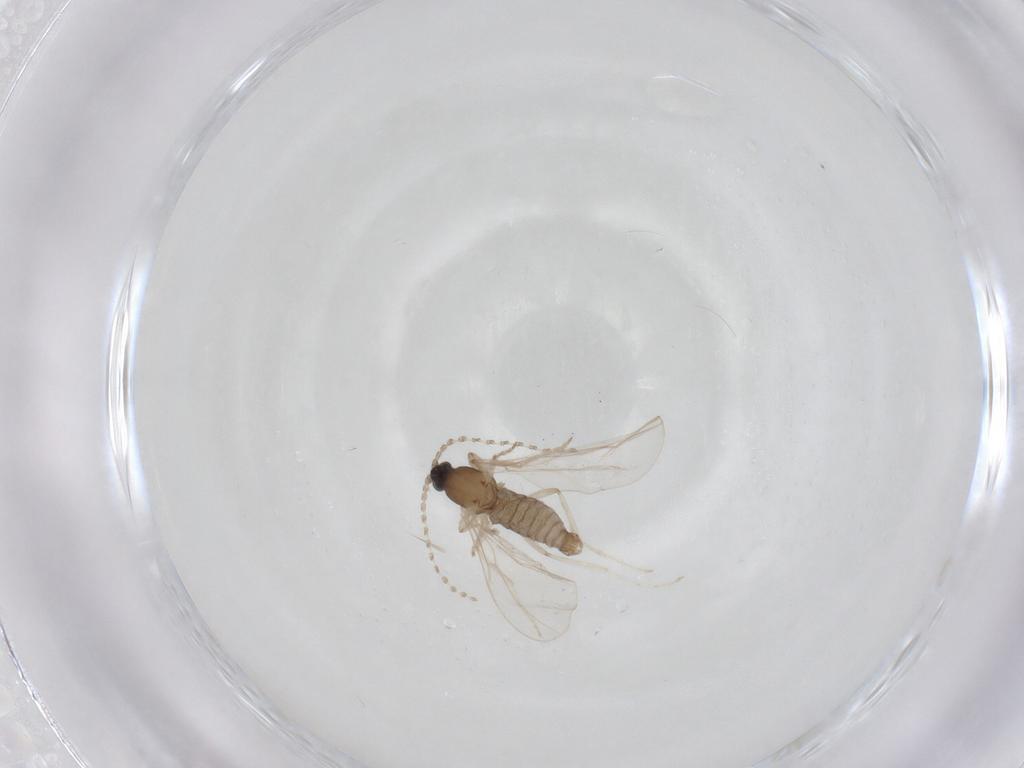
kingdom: Animalia
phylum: Arthropoda
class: Insecta
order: Diptera
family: Cecidomyiidae
